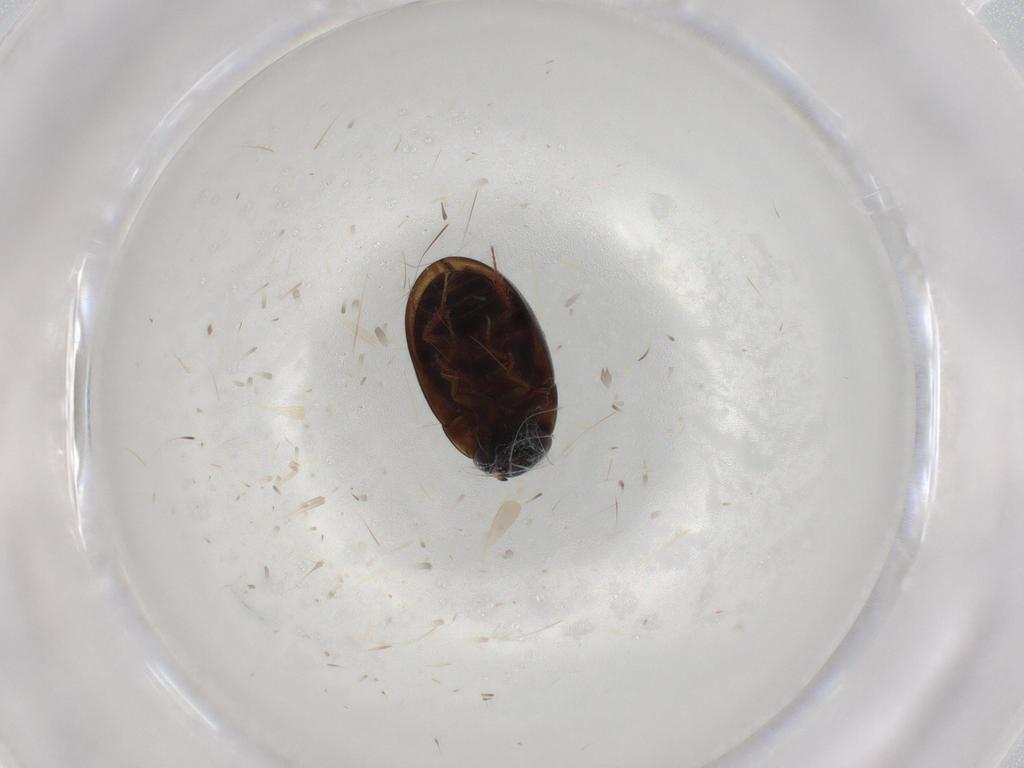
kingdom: Animalia
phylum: Arthropoda
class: Insecta
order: Coleoptera
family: Hydrophilidae
